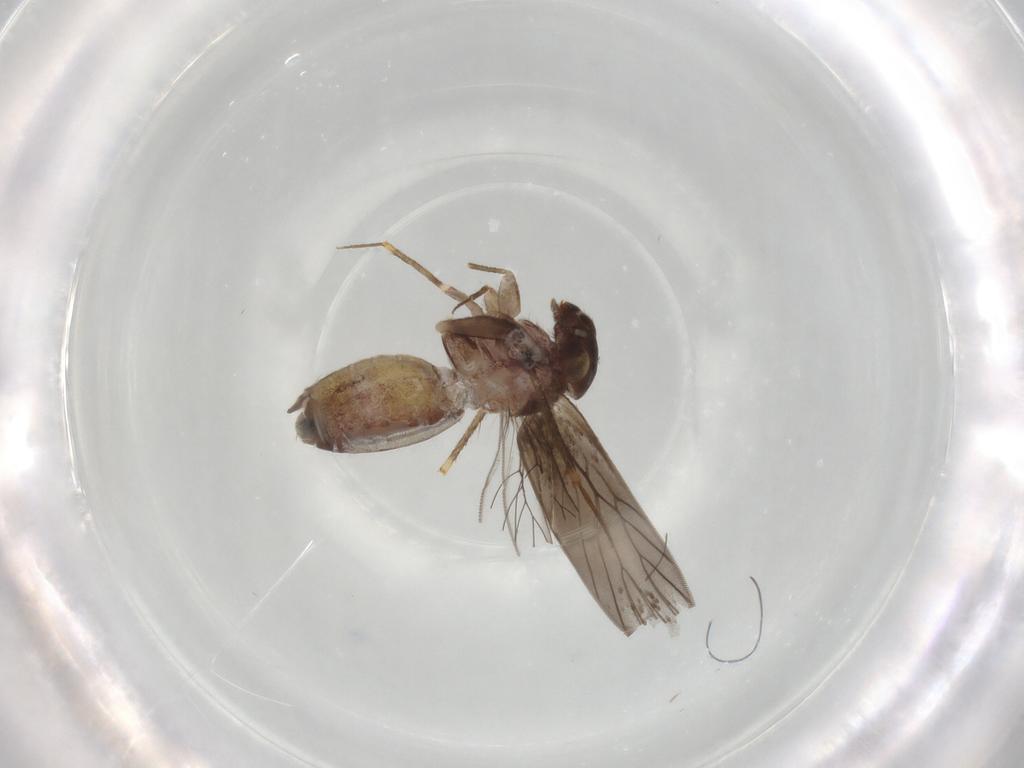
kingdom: Animalia
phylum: Arthropoda
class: Insecta
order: Psocodea
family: Lepidopsocidae
